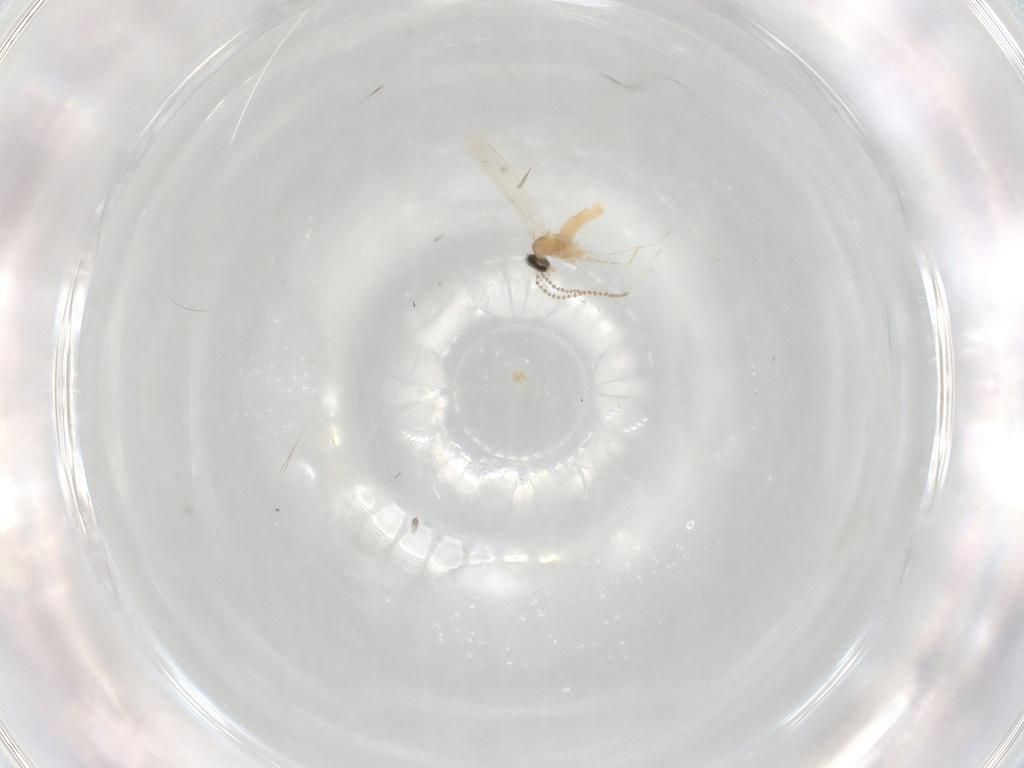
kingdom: Animalia
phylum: Arthropoda
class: Insecta
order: Diptera
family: Cecidomyiidae
